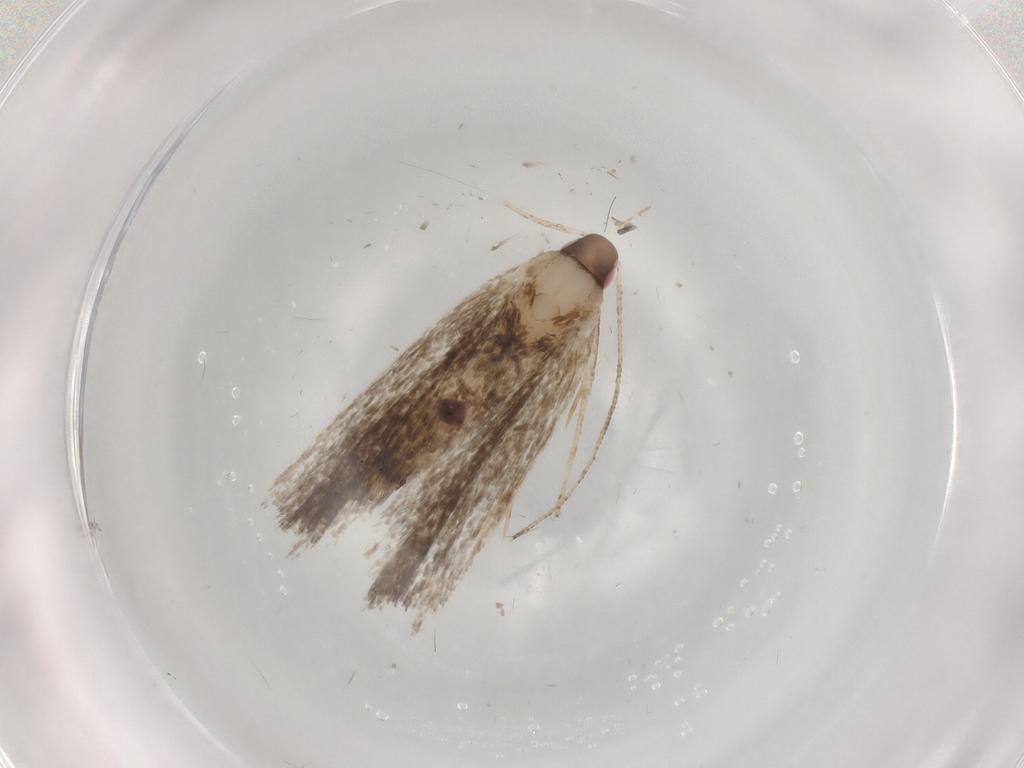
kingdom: Animalia
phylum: Arthropoda
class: Insecta
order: Lepidoptera
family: Gelechiidae
